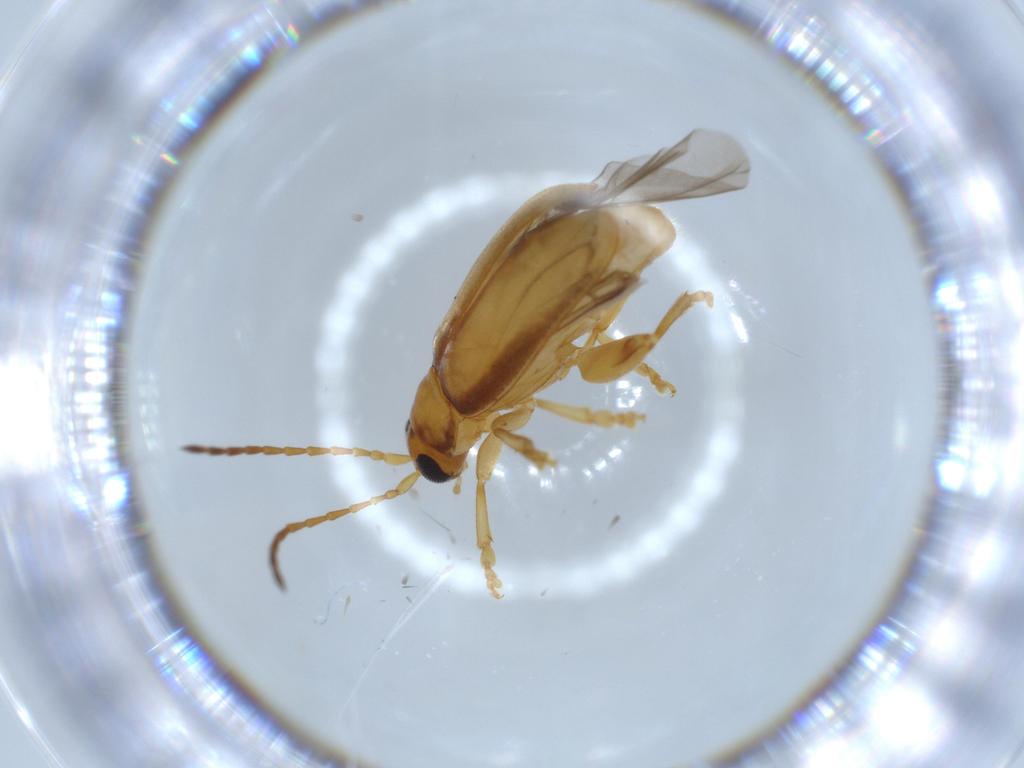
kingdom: Animalia
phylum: Arthropoda
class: Insecta
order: Coleoptera
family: Chrysomelidae
